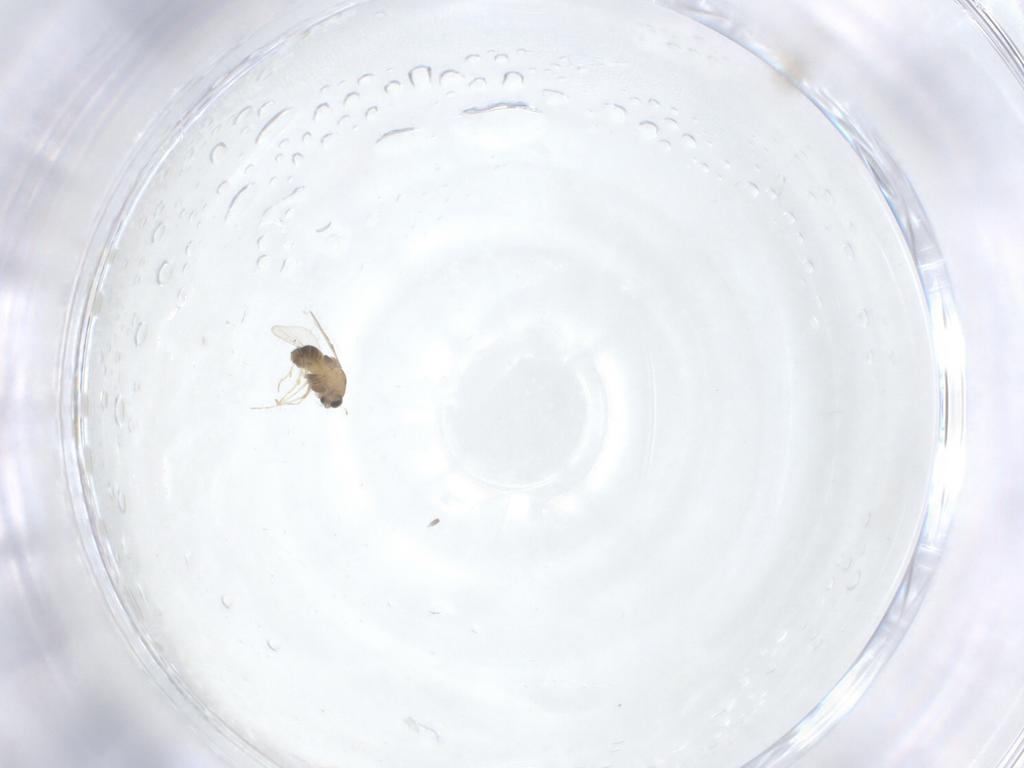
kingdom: Animalia
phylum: Arthropoda
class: Insecta
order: Diptera
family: Chironomidae
